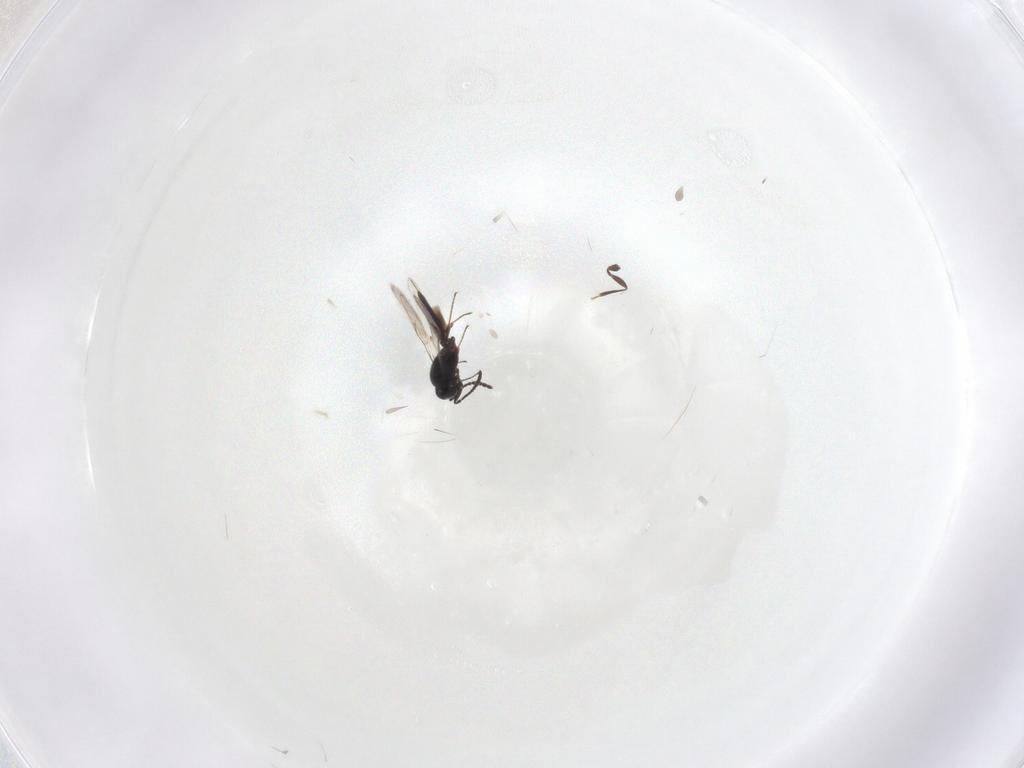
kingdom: Animalia
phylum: Arthropoda
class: Insecta
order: Hymenoptera
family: Scelionidae
